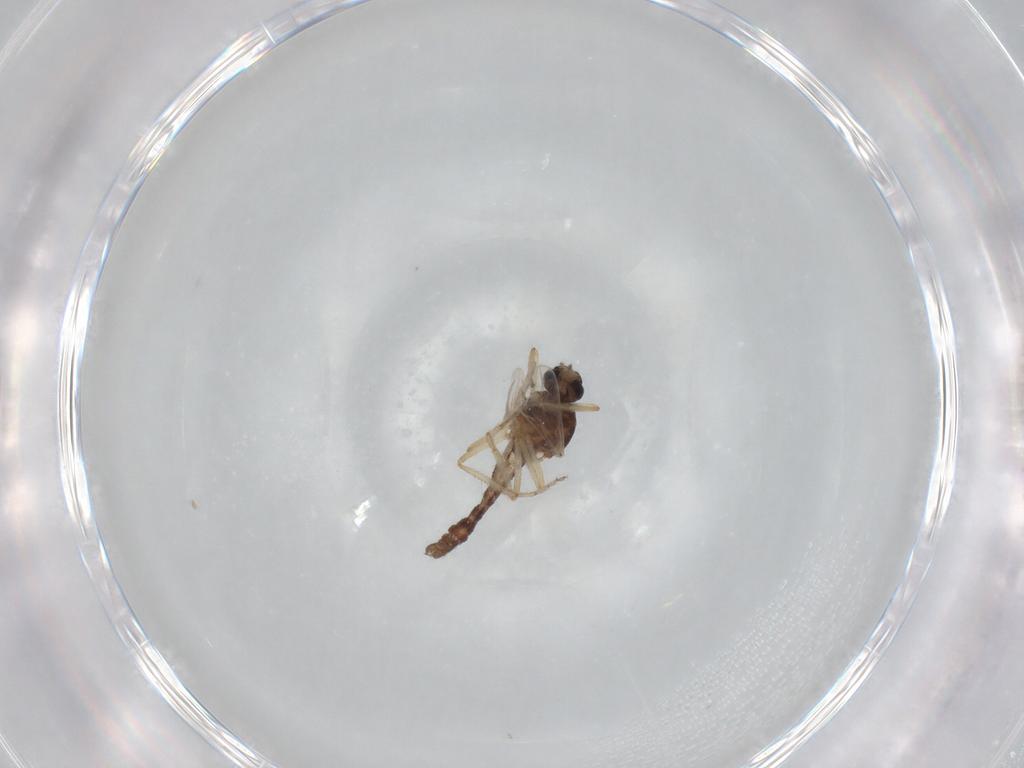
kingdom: Animalia
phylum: Arthropoda
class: Insecta
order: Diptera
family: Ceratopogonidae
